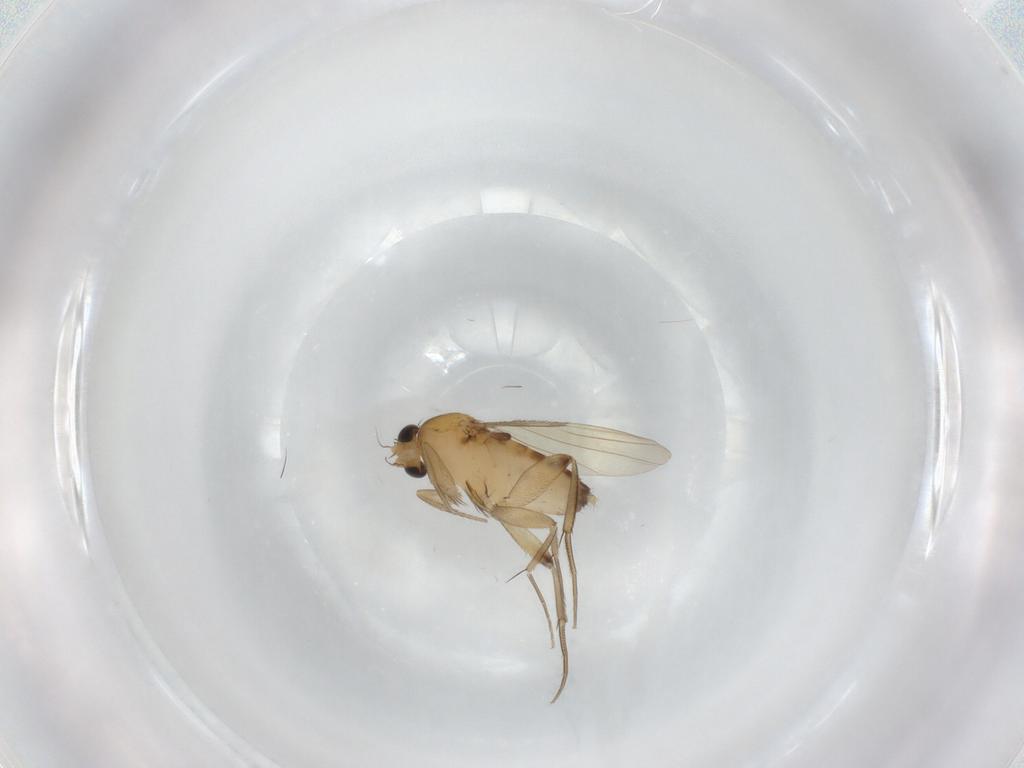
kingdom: Animalia
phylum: Arthropoda
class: Insecta
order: Diptera
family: Phoridae
